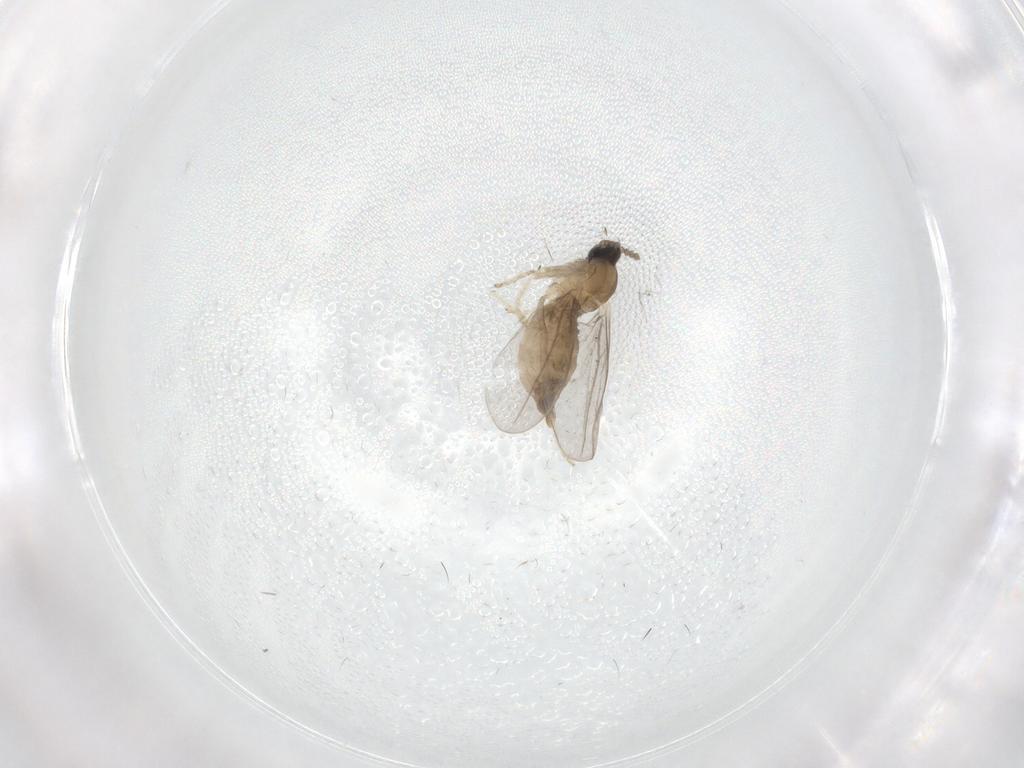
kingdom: Animalia
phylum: Arthropoda
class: Insecta
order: Diptera
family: Cecidomyiidae
